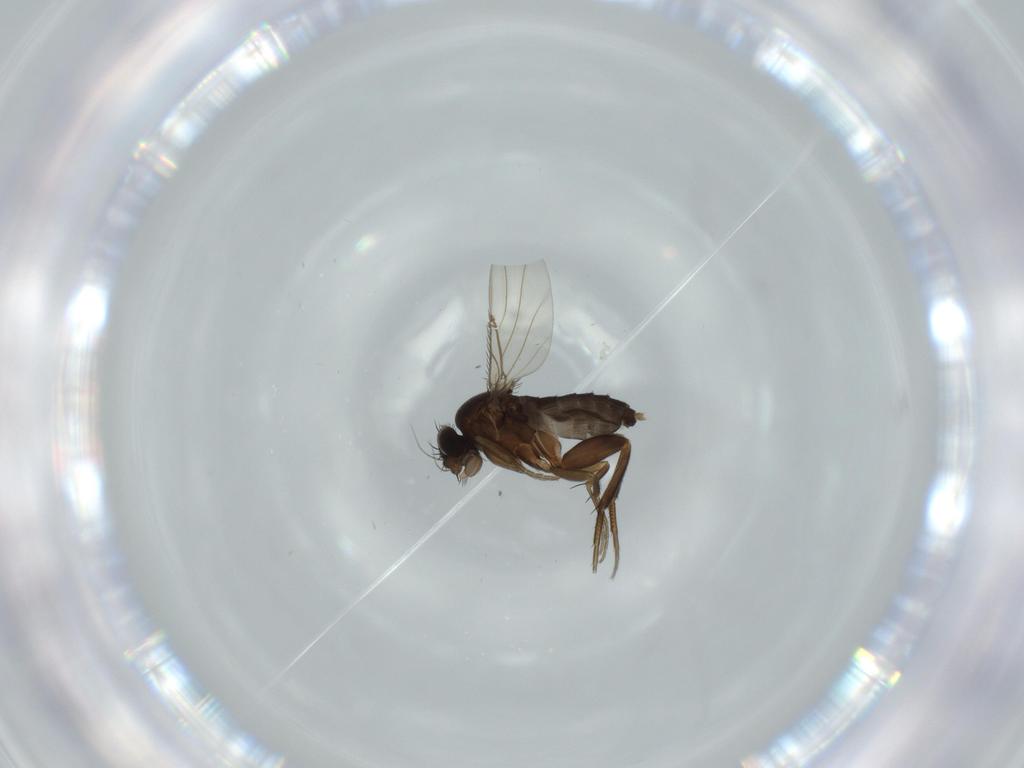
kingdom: Animalia
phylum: Arthropoda
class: Insecta
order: Diptera
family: Phoridae
